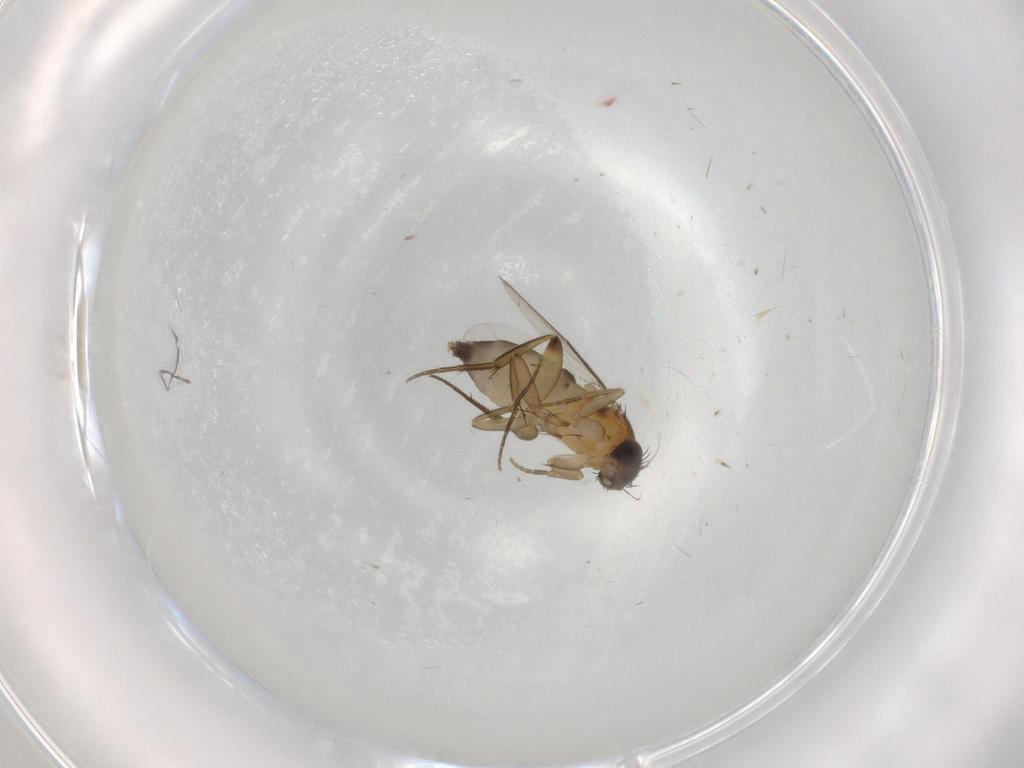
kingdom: Animalia
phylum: Arthropoda
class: Insecta
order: Diptera
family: Phoridae
